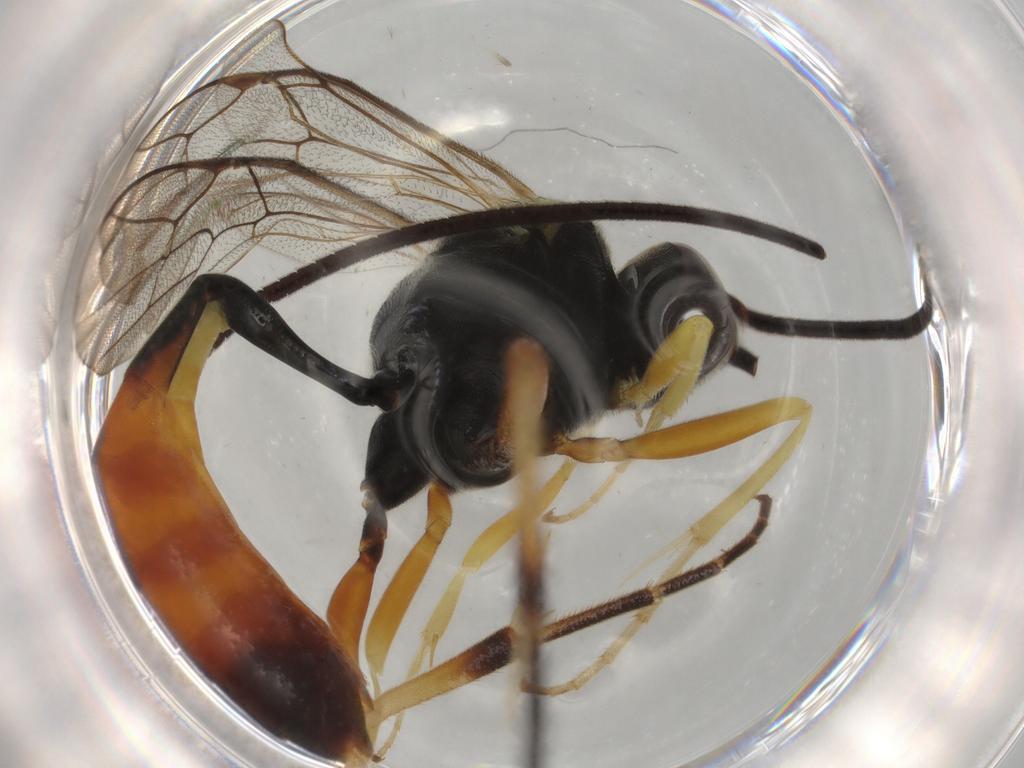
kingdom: Animalia
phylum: Arthropoda
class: Insecta
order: Hymenoptera
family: Ichneumonidae
